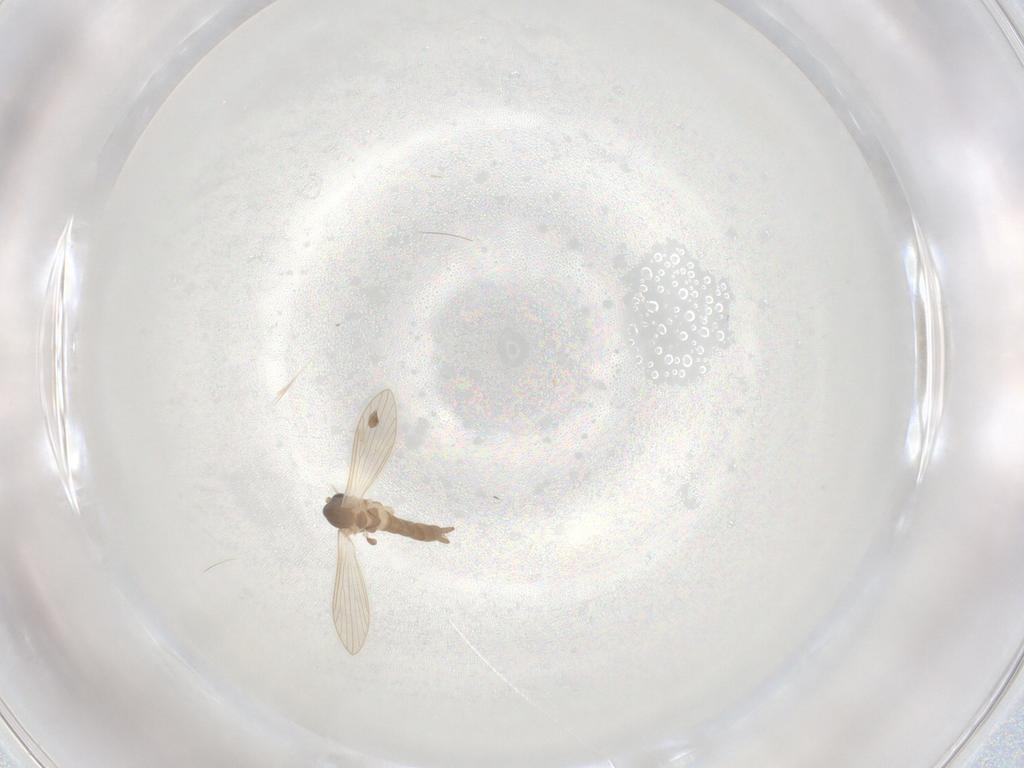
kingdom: Animalia
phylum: Arthropoda
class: Insecta
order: Diptera
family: Psychodidae
